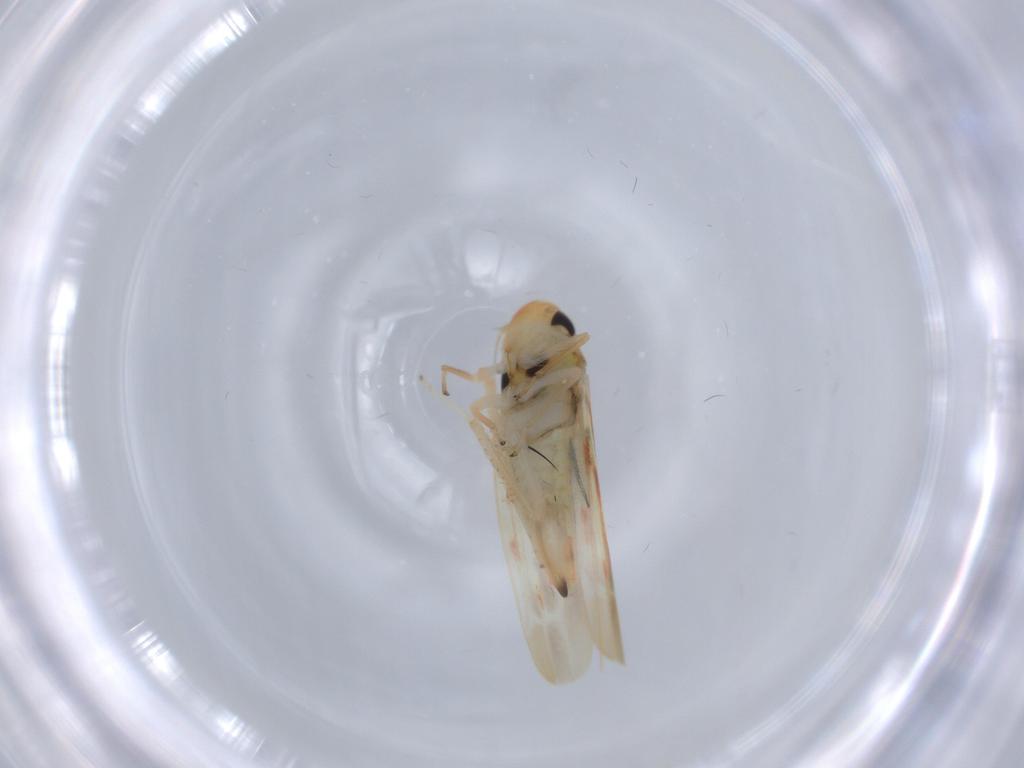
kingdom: Animalia
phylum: Arthropoda
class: Insecta
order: Hemiptera
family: Cicadellidae
